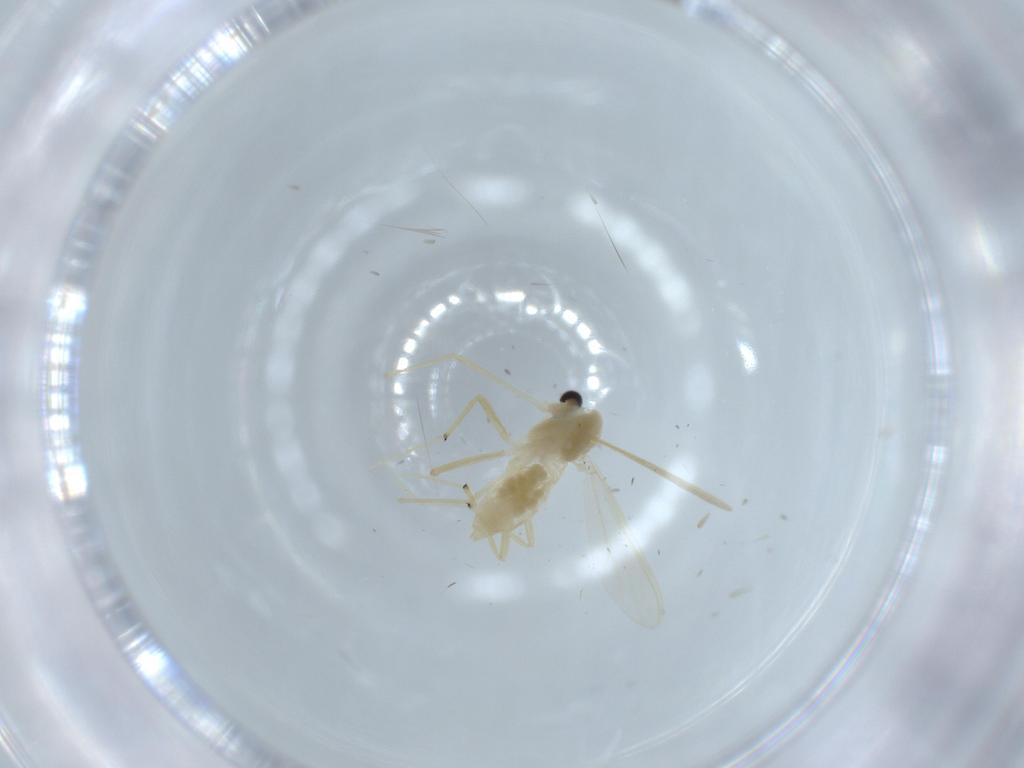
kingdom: Animalia
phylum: Arthropoda
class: Insecta
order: Diptera
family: Chironomidae
